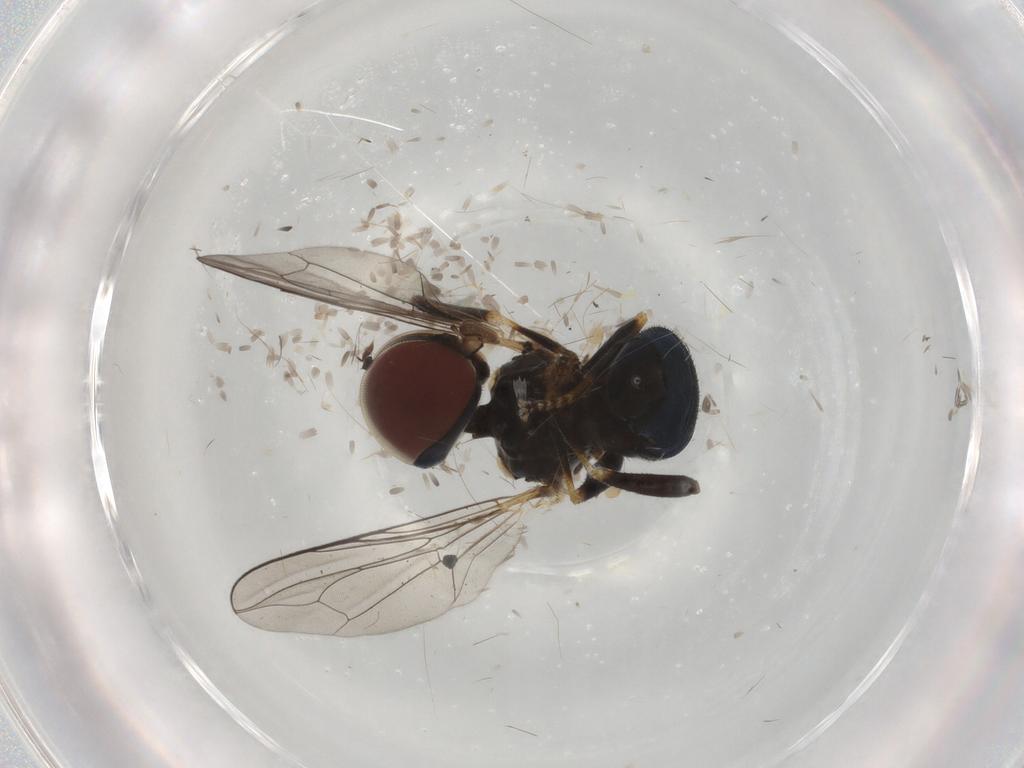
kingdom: Animalia
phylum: Arthropoda
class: Insecta
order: Diptera
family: Pipunculidae
